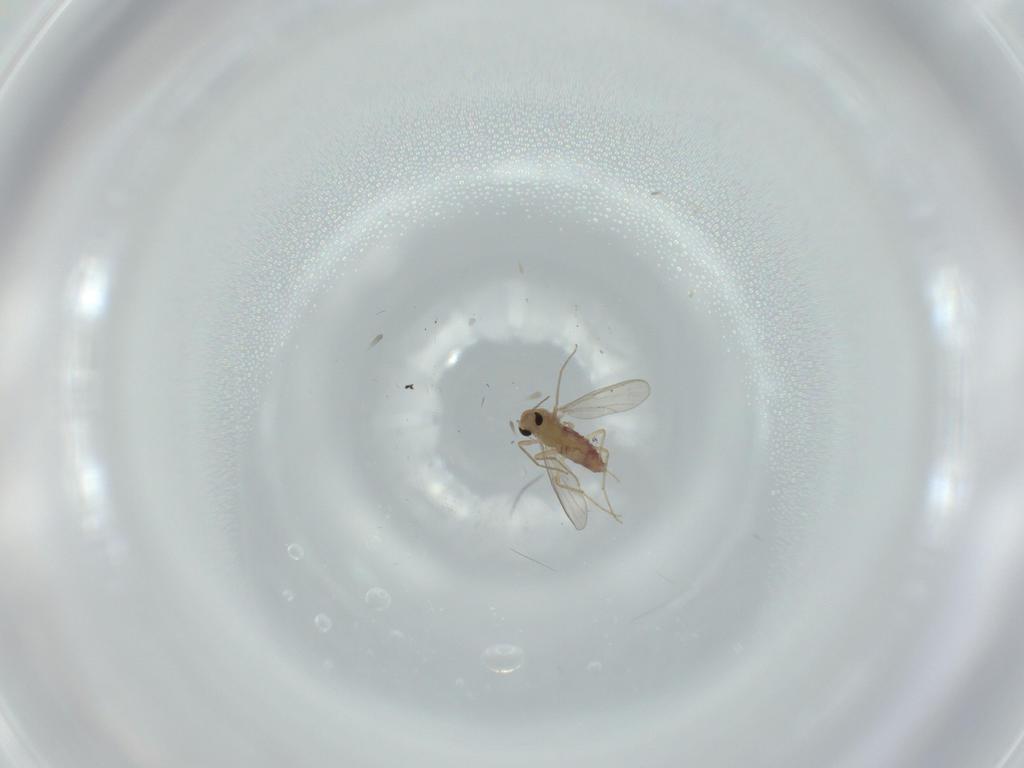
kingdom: Animalia
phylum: Arthropoda
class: Insecta
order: Diptera
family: Chironomidae
